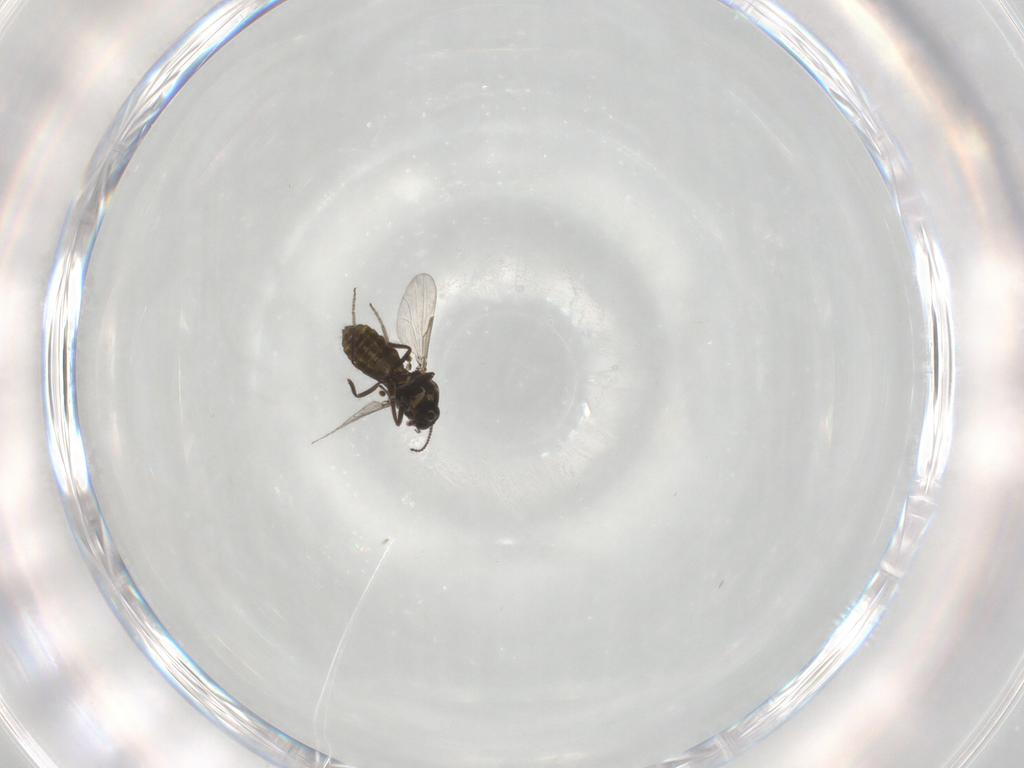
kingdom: Animalia
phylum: Arthropoda
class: Insecta
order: Diptera
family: Ceratopogonidae
